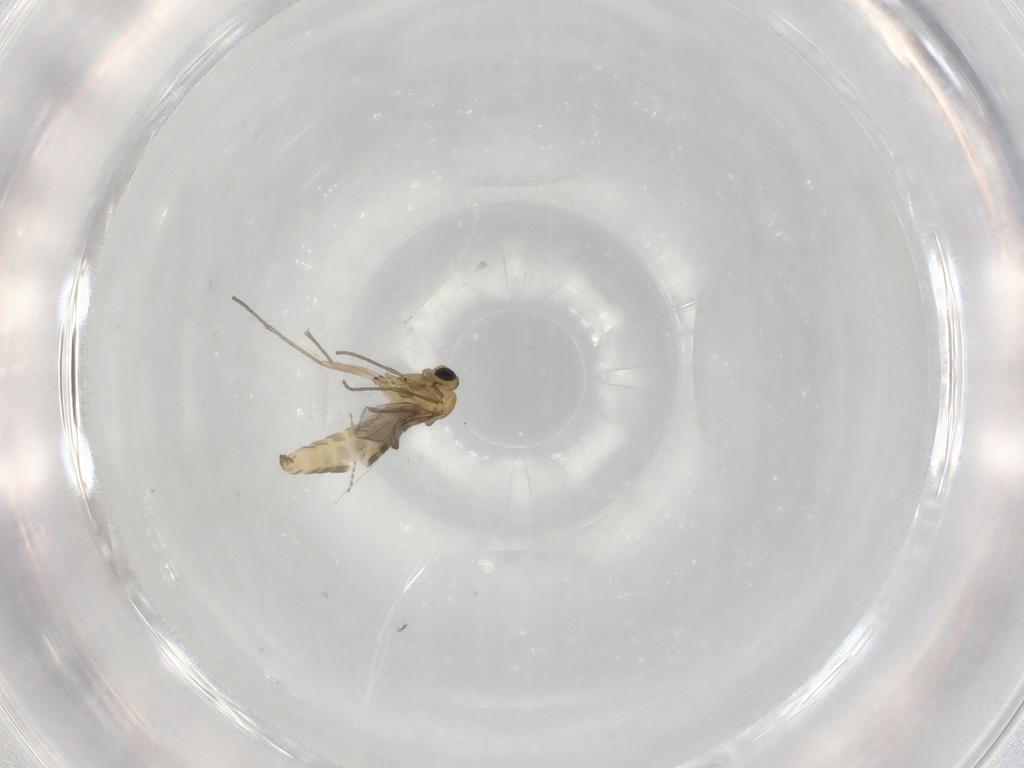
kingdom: Animalia
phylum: Arthropoda
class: Insecta
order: Diptera
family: Sciaridae
